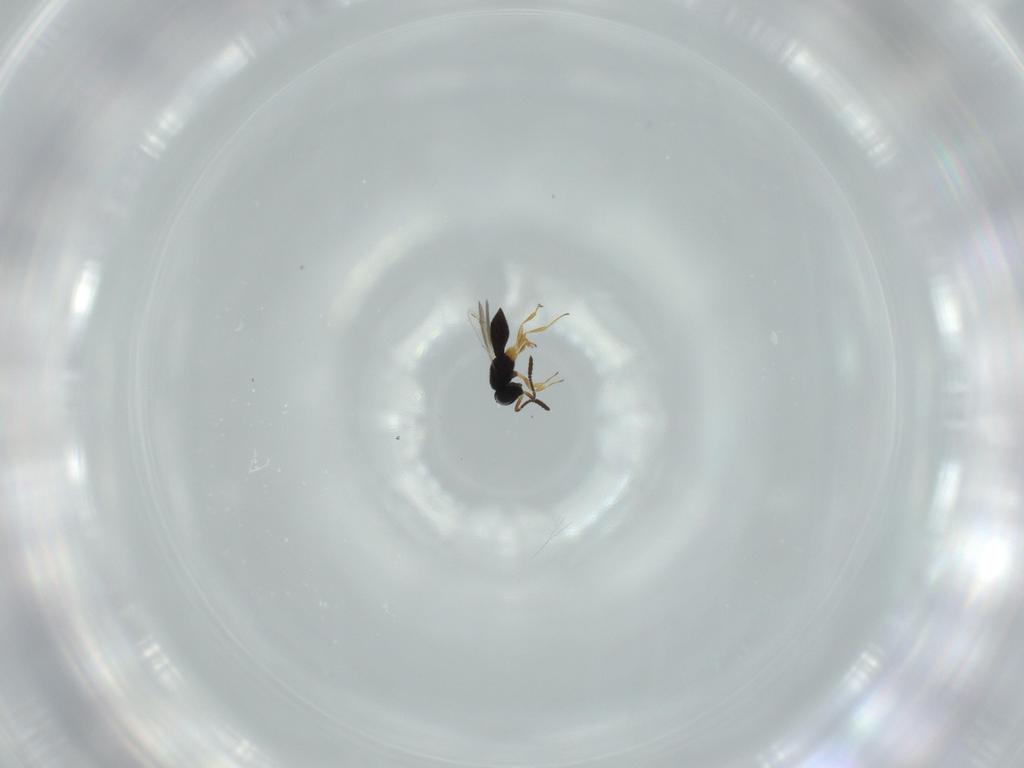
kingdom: Animalia
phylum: Arthropoda
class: Insecta
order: Hymenoptera
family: Scelionidae
